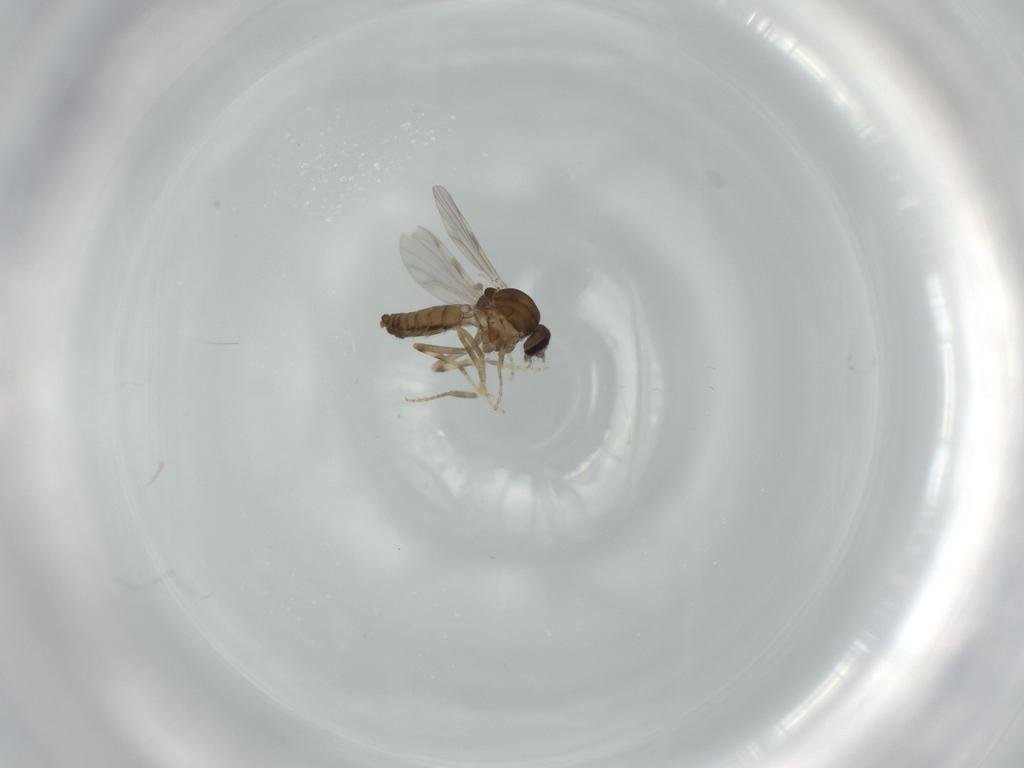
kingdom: Animalia
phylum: Arthropoda
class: Insecta
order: Diptera
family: Ceratopogonidae
